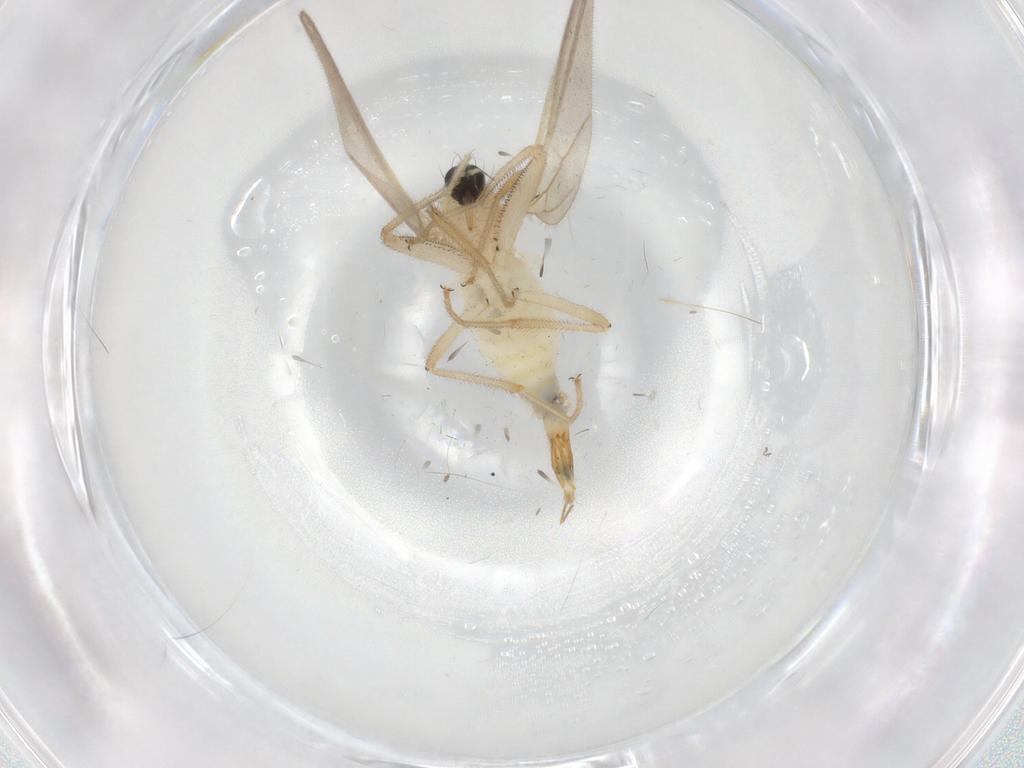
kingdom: Animalia
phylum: Arthropoda
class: Insecta
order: Diptera
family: Hybotidae
